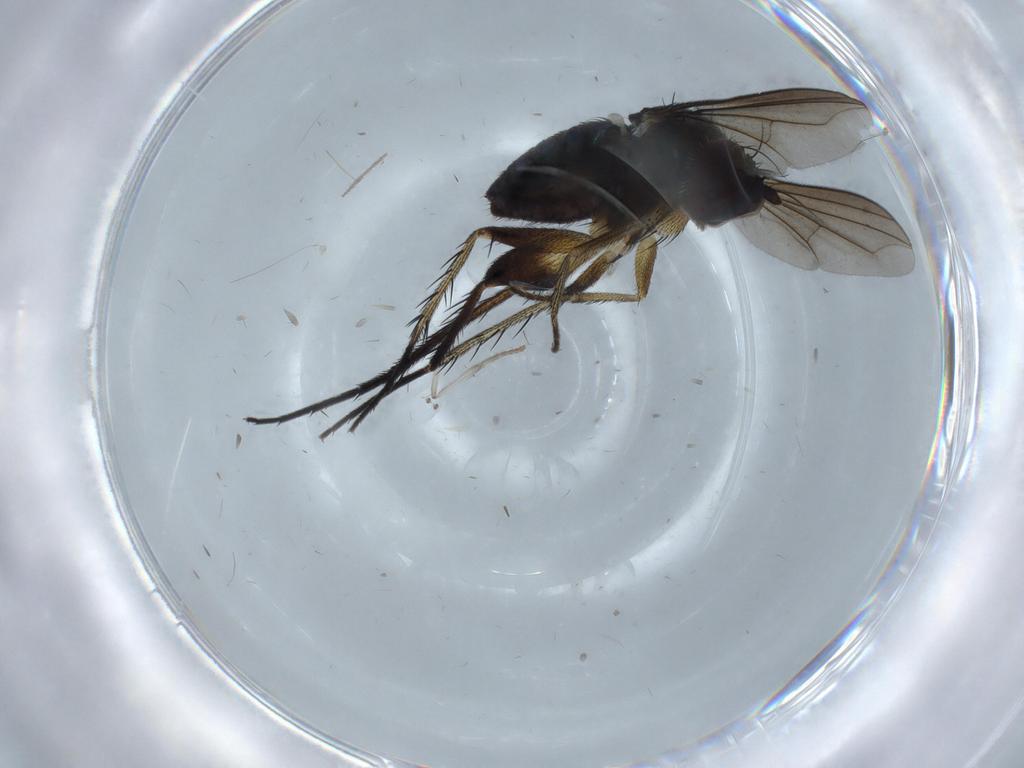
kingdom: Animalia
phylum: Arthropoda
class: Insecta
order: Diptera
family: Dolichopodidae
